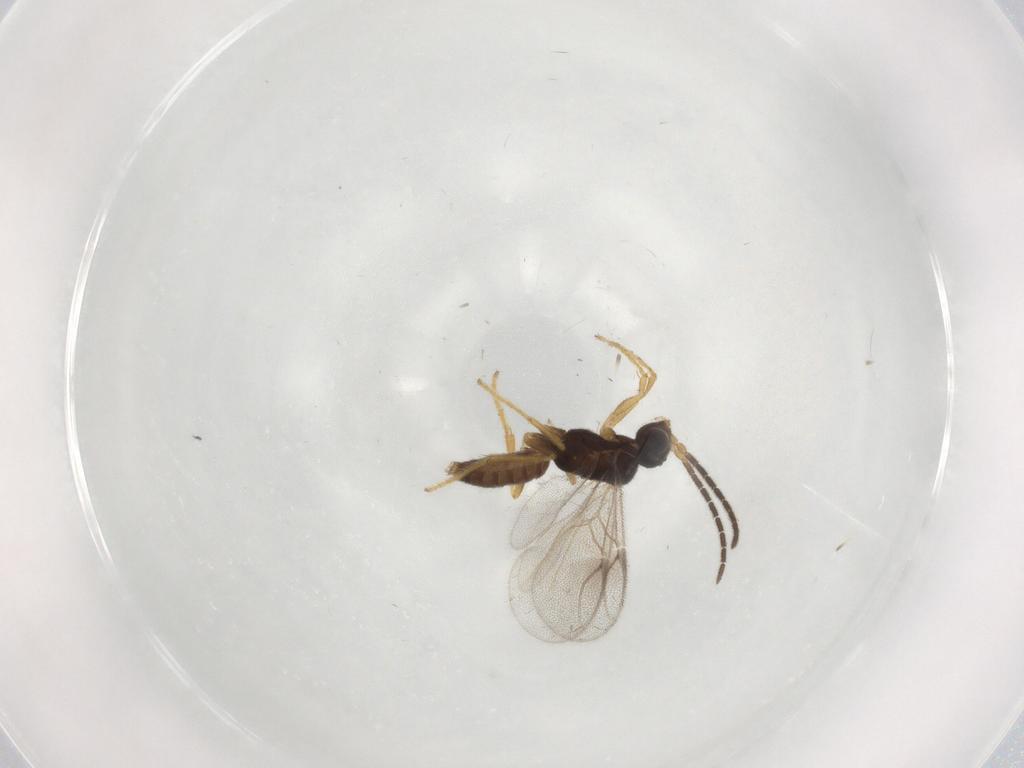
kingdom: Animalia
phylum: Arthropoda
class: Insecta
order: Hymenoptera
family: Dryinidae
